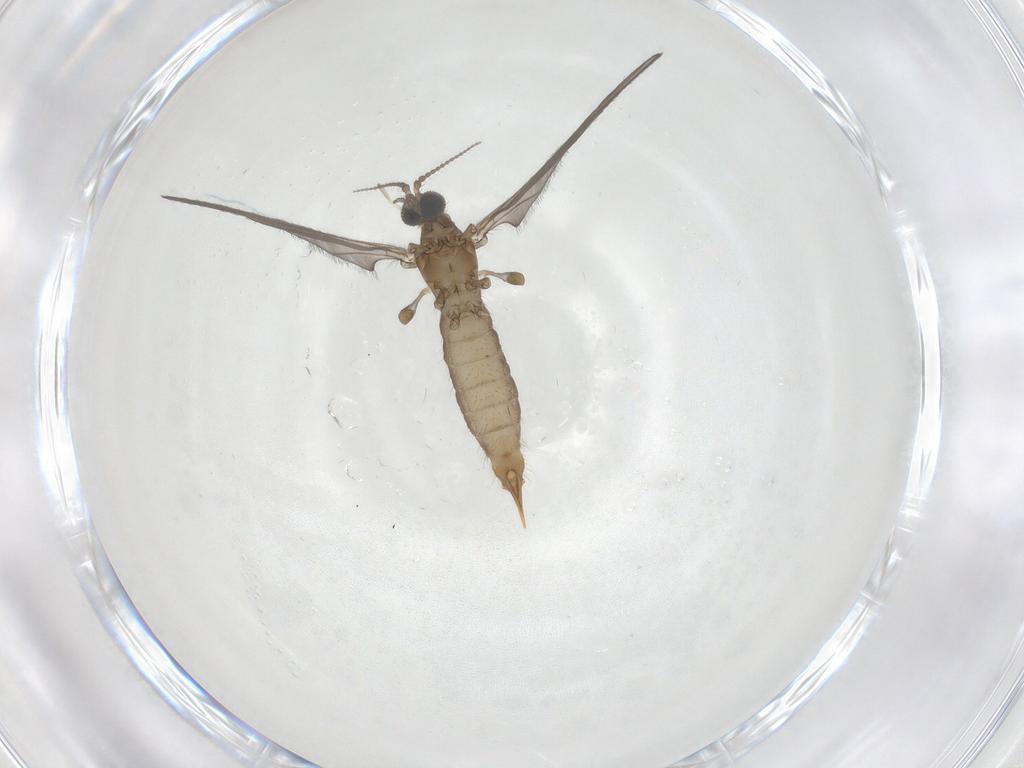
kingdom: Animalia
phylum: Arthropoda
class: Insecta
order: Diptera
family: Limoniidae
